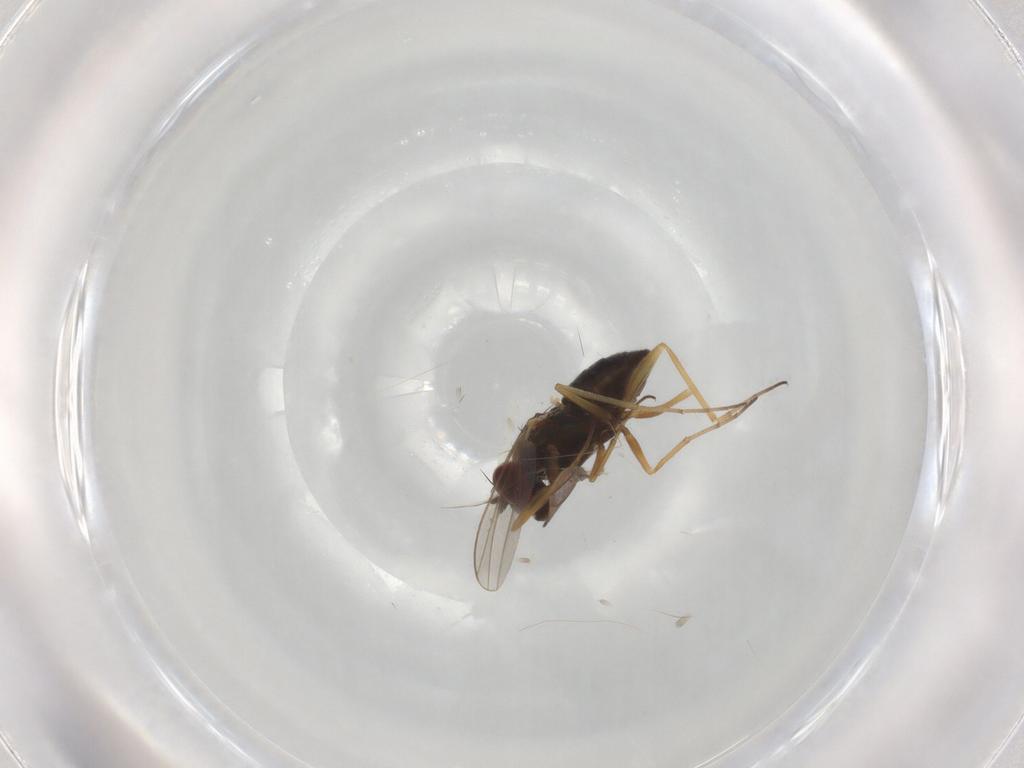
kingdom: Animalia
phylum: Arthropoda
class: Insecta
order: Diptera
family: Dolichopodidae
